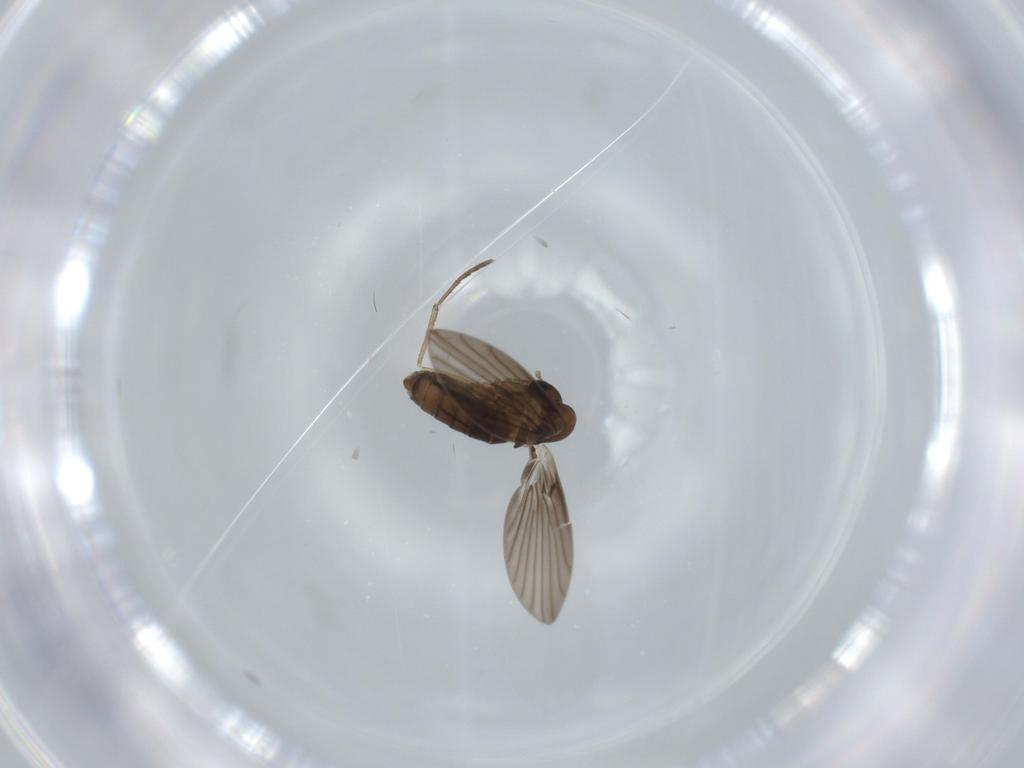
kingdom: Animalia
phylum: Arthropoda
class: Insecta
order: Diptera
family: Psychodidae
